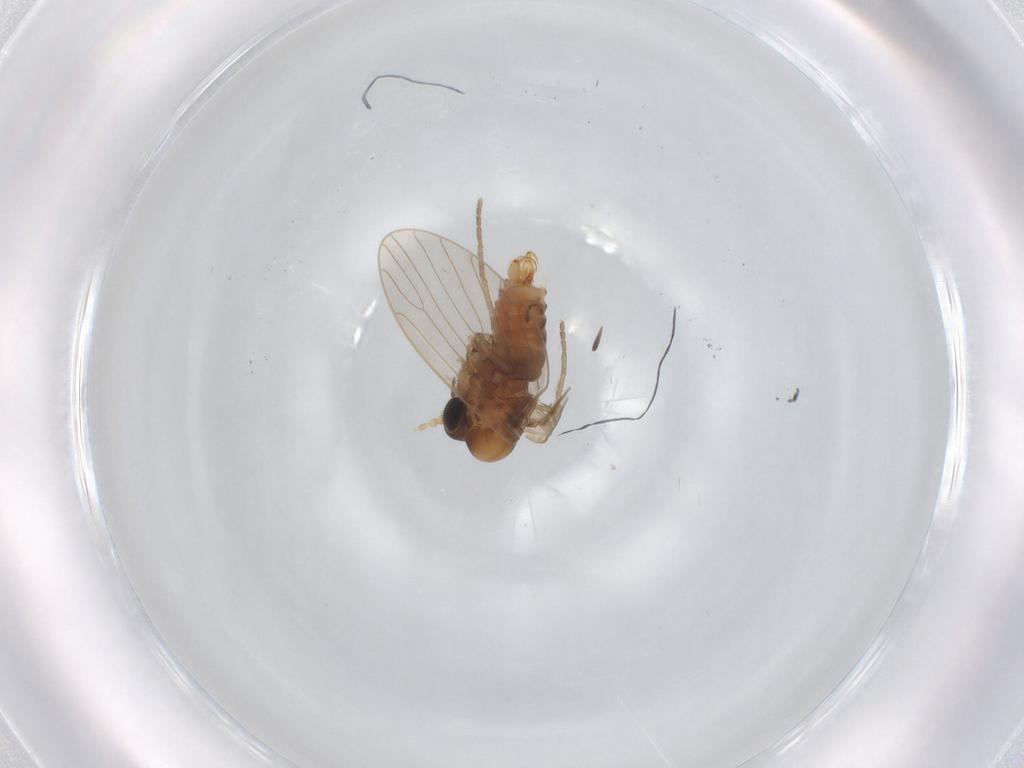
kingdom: Animalia
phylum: Arthropoda
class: Insecta
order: Diptera
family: Psychodidae
